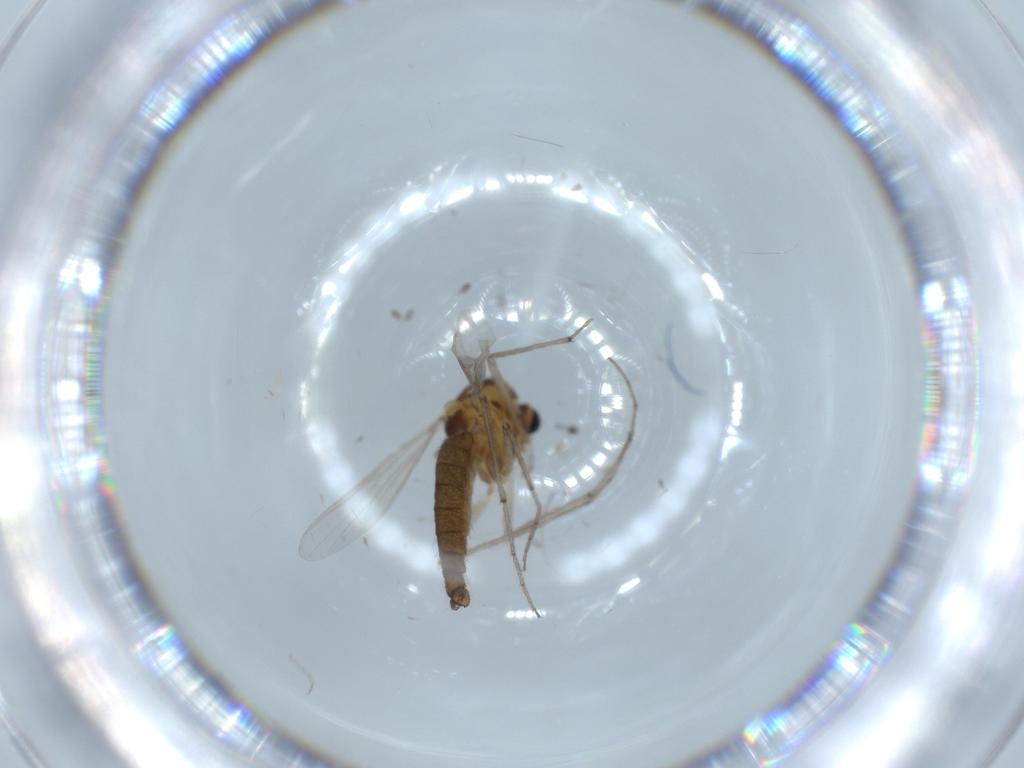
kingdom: Animalia
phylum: Arthropoda
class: Insecta
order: Diptera
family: Chironomidae
